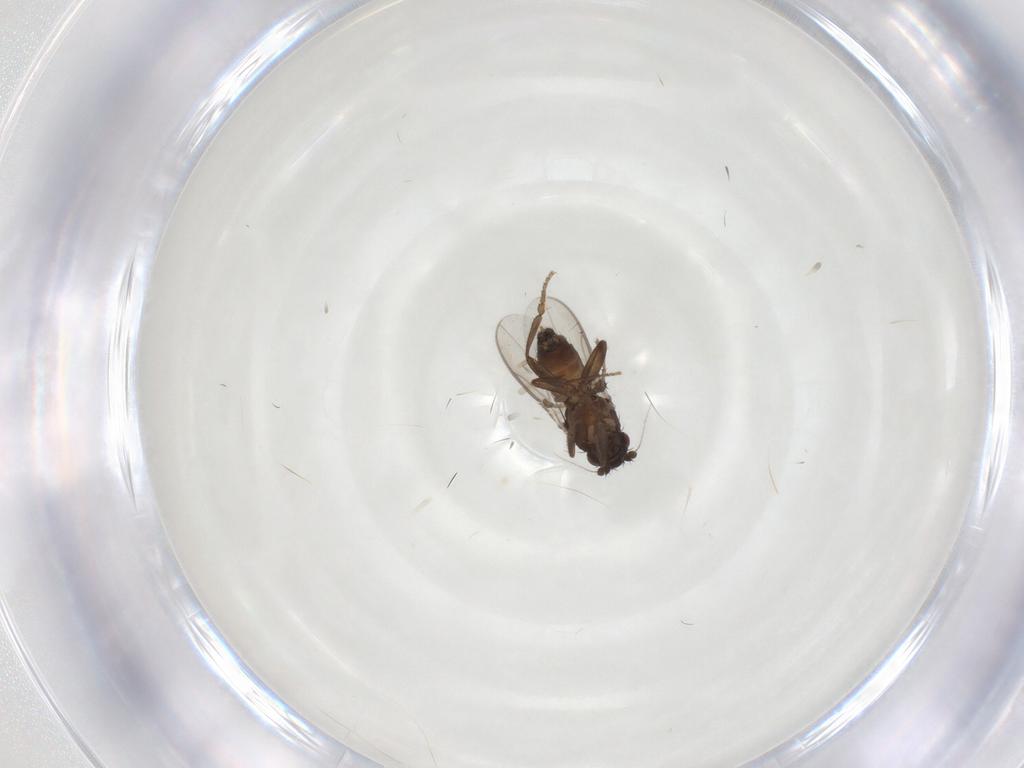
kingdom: Animalia
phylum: Arthropoda
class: Insecta
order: Diptera
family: Sphaeroceridae
